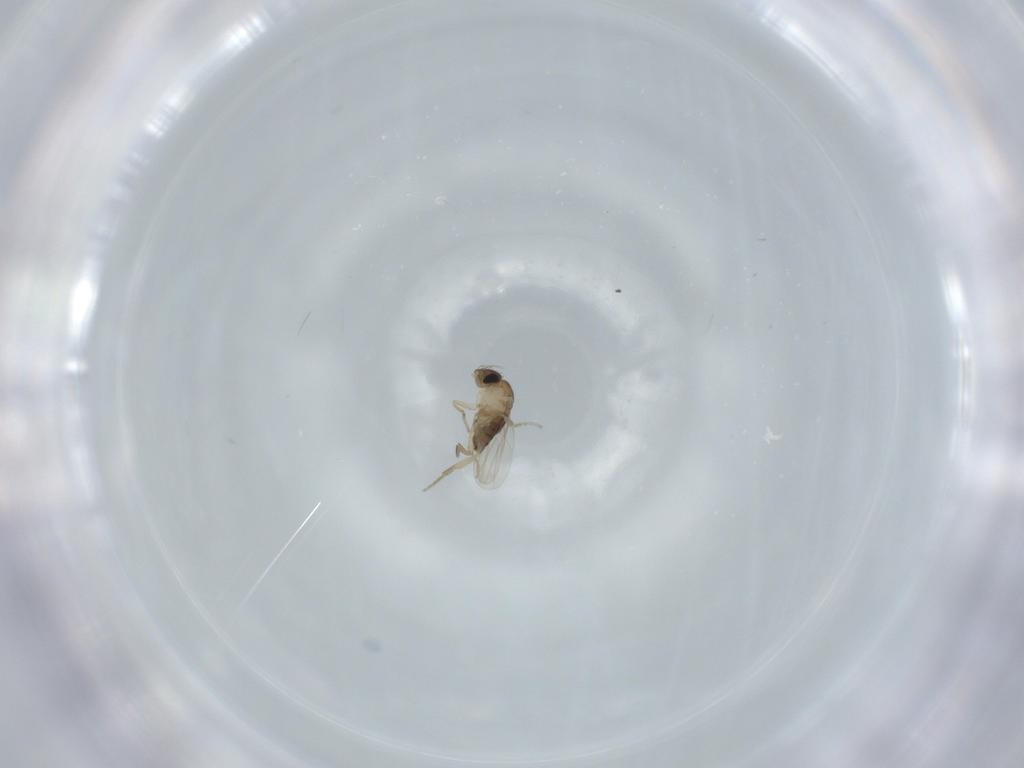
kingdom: Animalia
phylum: Arthropoda
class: Insecta
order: Diptera
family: Phoridae
